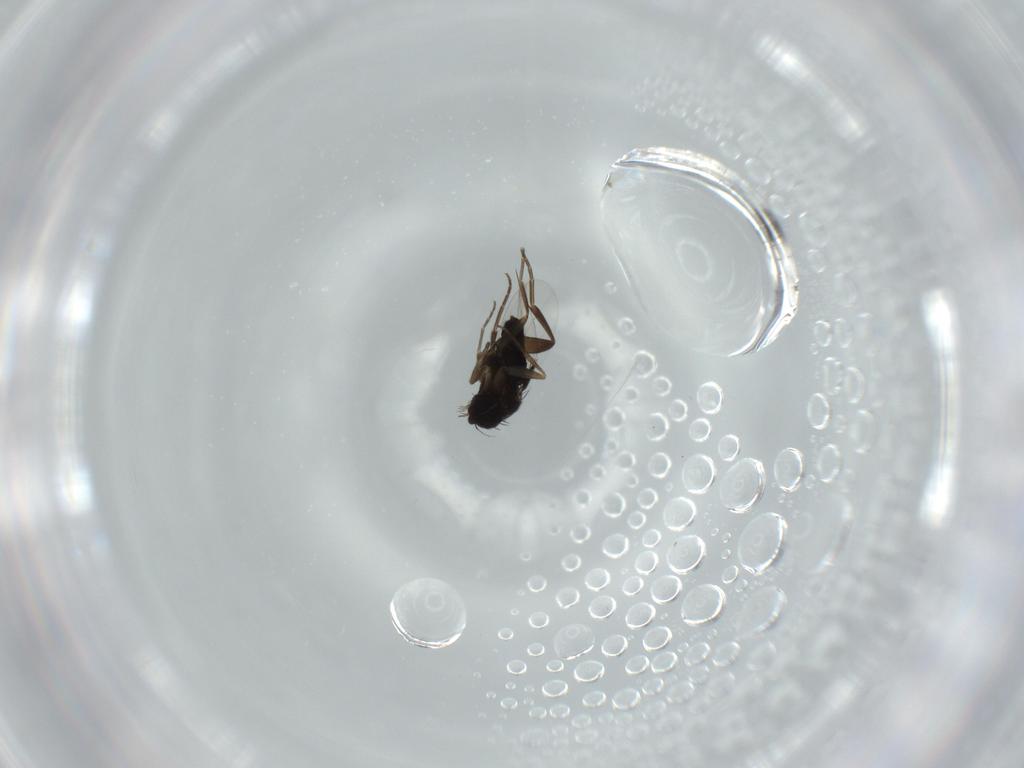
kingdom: Animalia
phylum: Arthropoda
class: Insecta
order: Diptera
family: Phoridae
